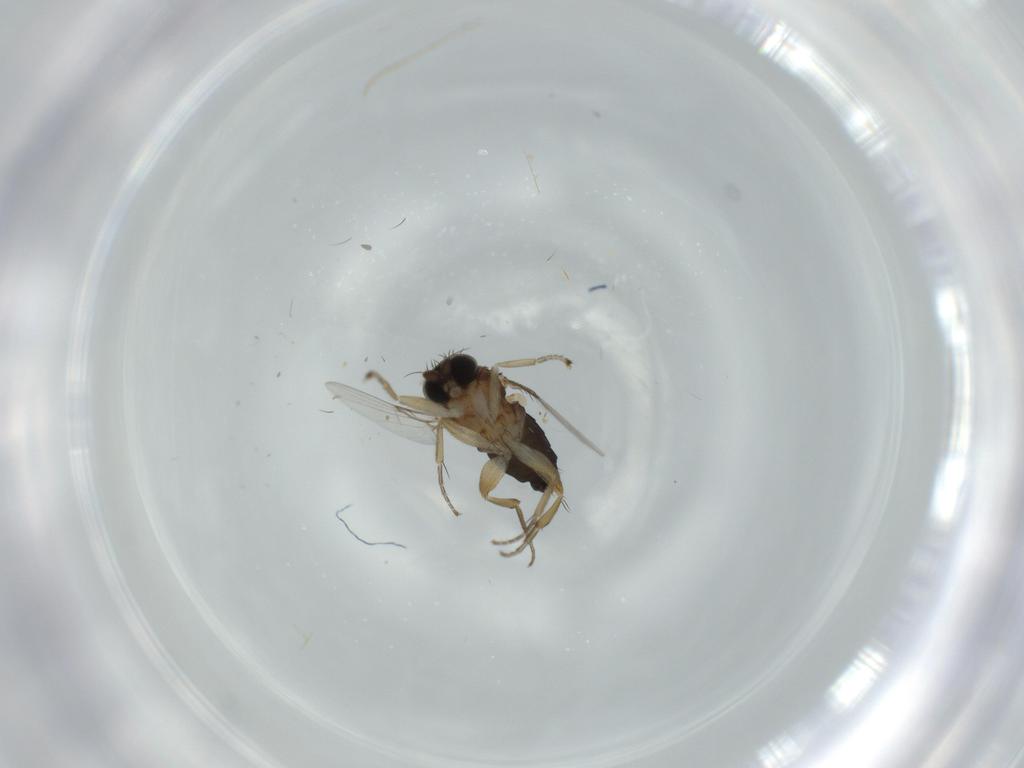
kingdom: Animalia
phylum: Arthropoda
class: Insecta
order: Diptera
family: Phoridae
